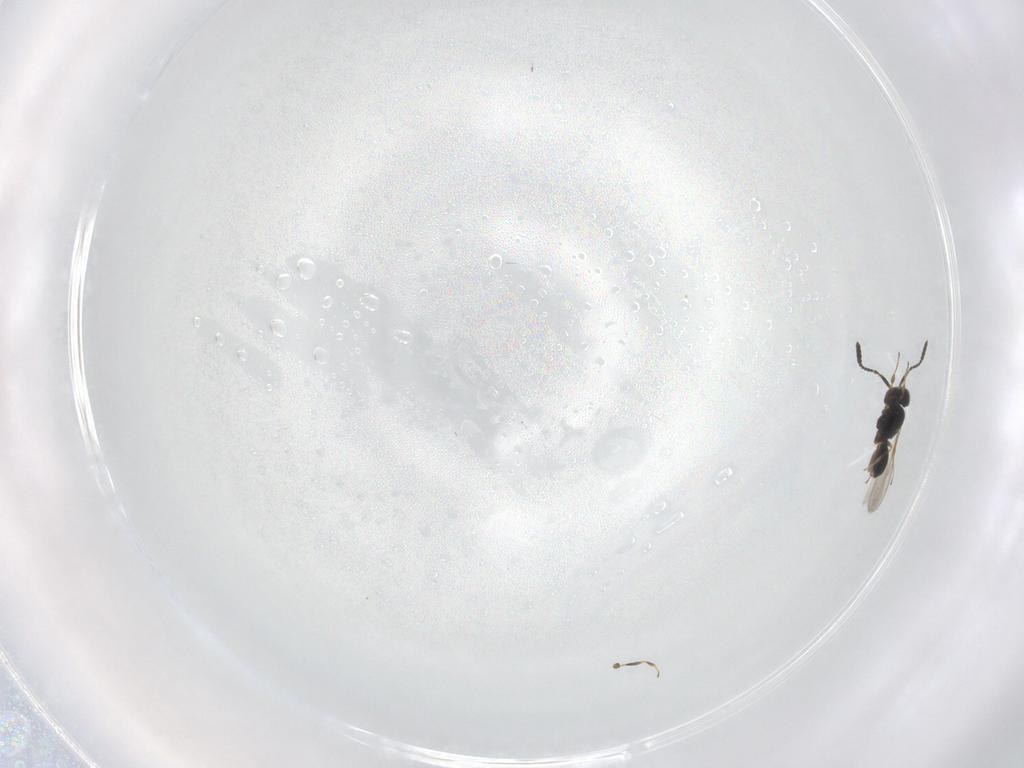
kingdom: Animalia
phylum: Arthropoda
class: Insecta
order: Hymenoptera
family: Scelionidae
